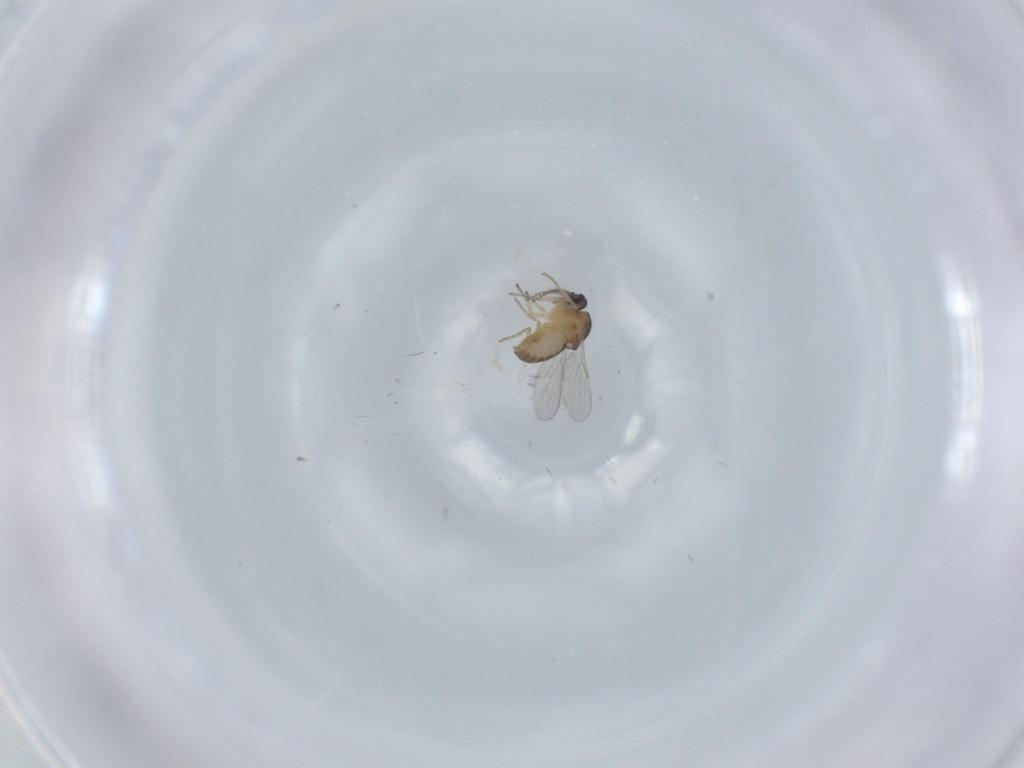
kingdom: Animalia
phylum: Arthropoda
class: Insecta
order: Diptera
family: Ceratopogonidae
